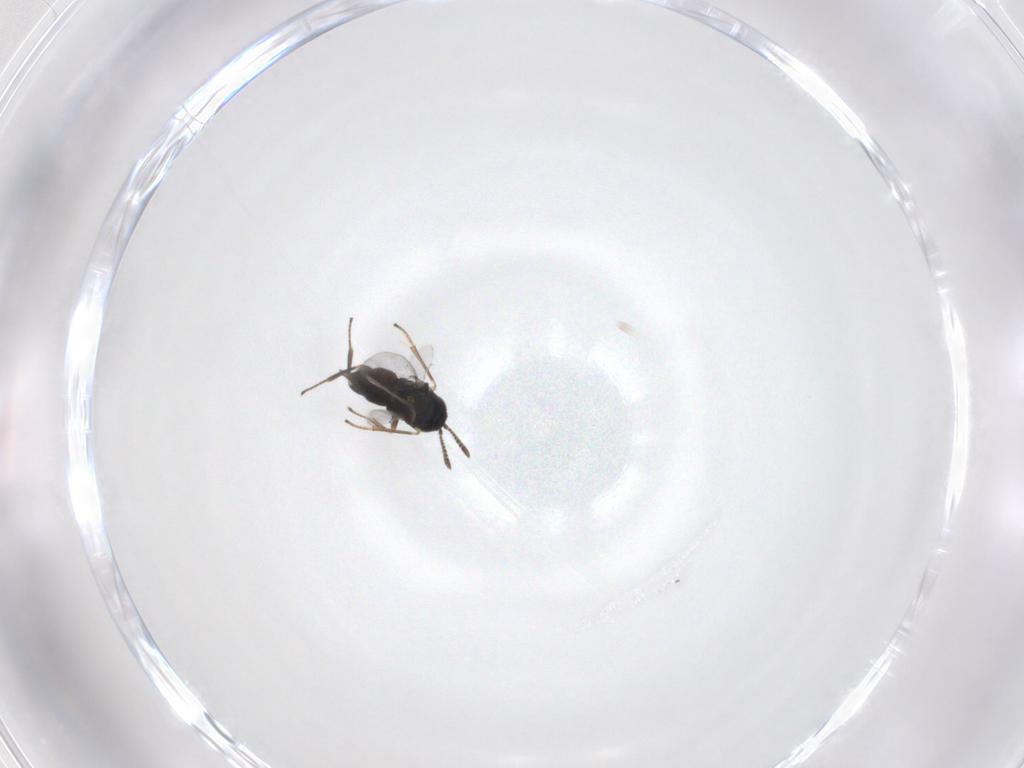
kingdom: Animalia
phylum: Arthropoda
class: Insecta
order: Hymenoptera
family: Encyrtidae
